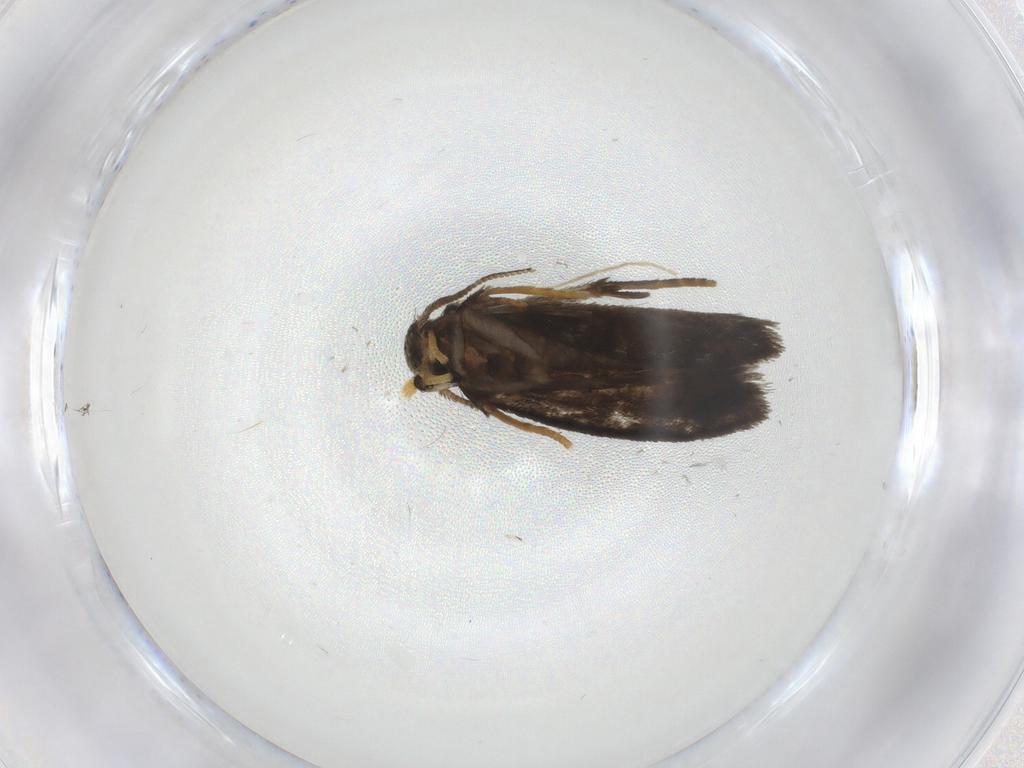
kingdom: Animalia
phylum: Arthropoda
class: Insecta
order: Lepidoptera
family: Psychidae
